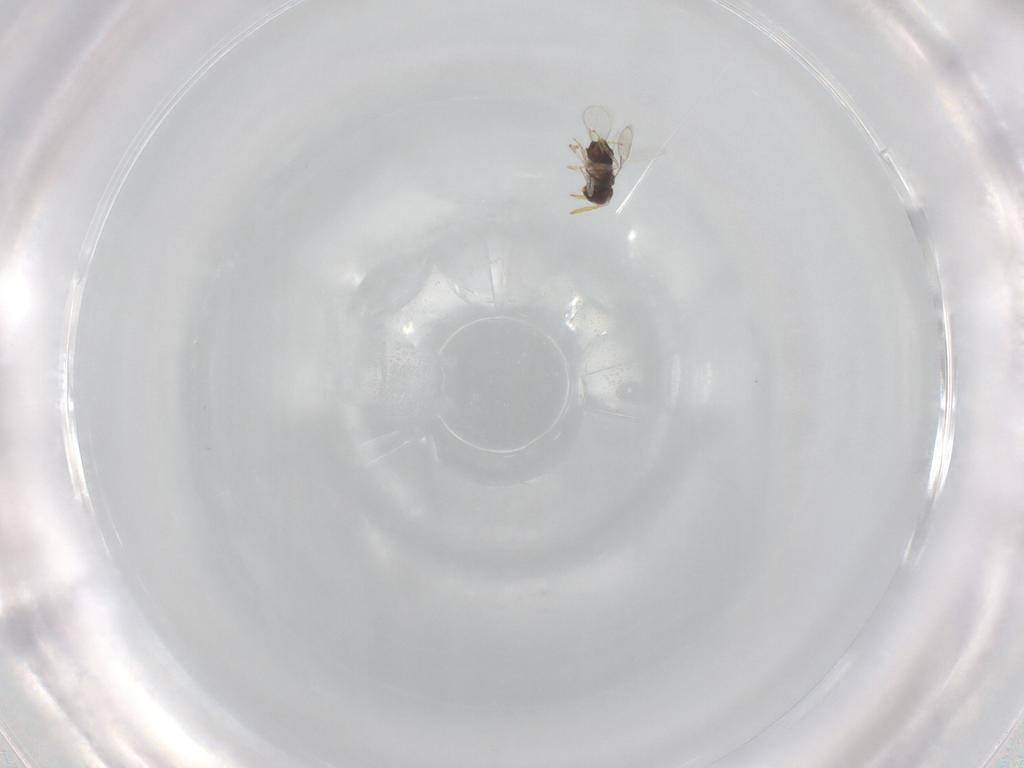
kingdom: Animalia
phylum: Arthropoda
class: Insecta
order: Hymenoptera
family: Aphelinidae
